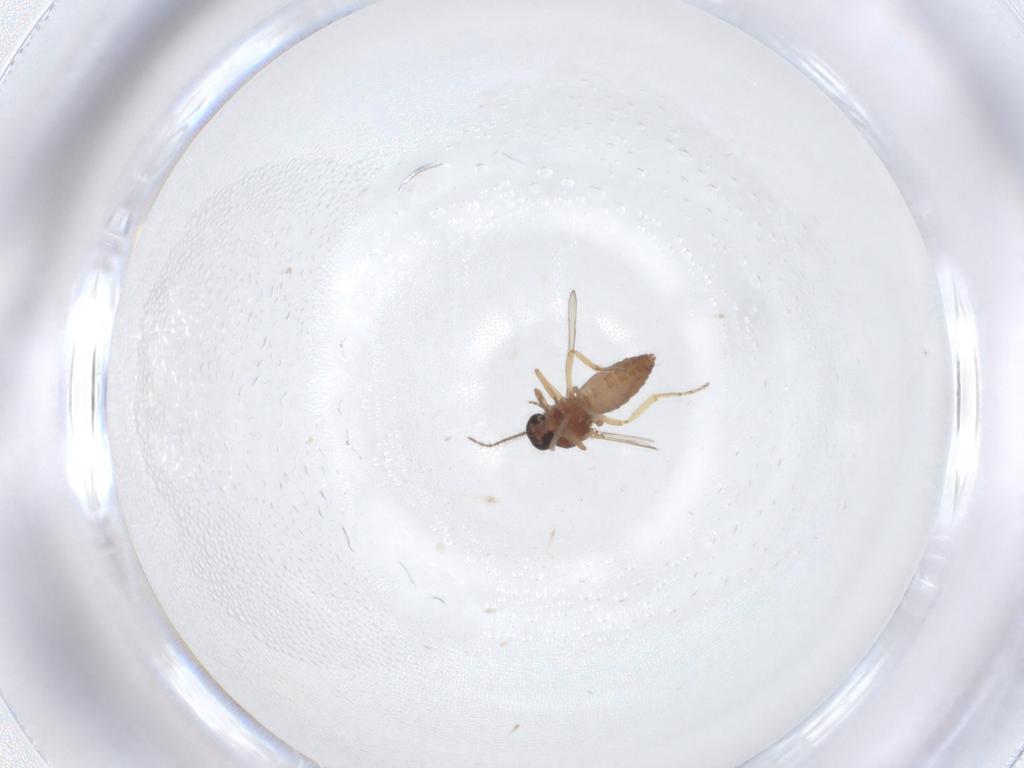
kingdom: Animalia
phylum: Arthropoda
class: Insecta
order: Diptera
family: Ceratopogonidae
